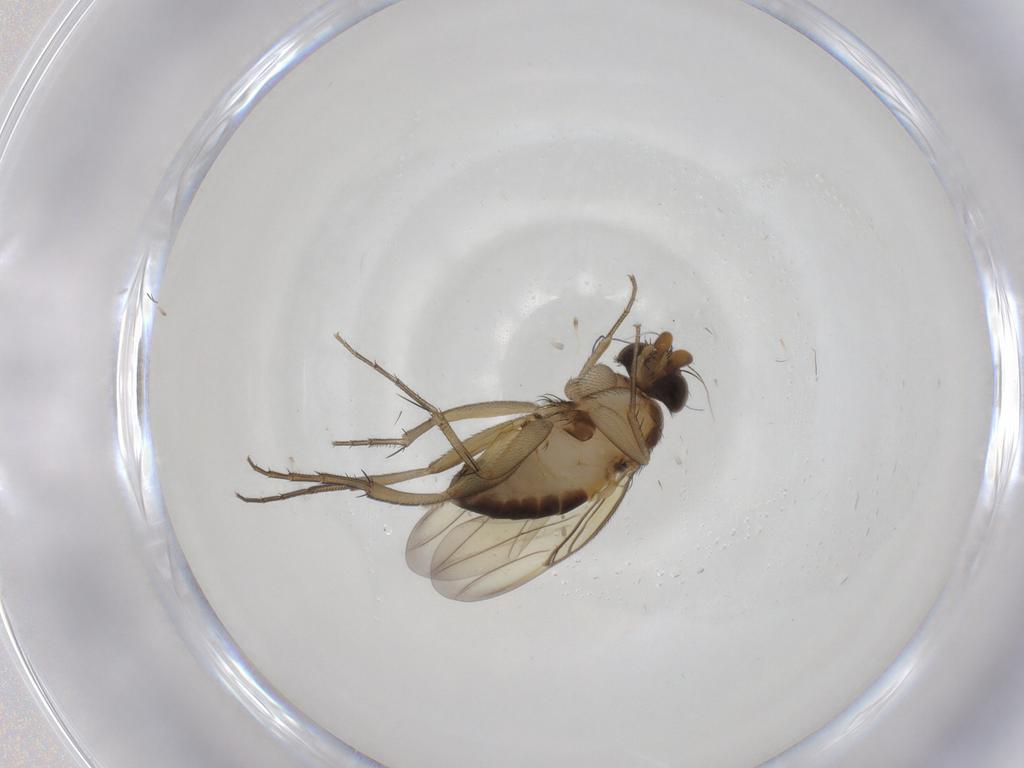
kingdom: Animalia
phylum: Arthropoda
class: Insecta
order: Diptera
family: Phoridae
